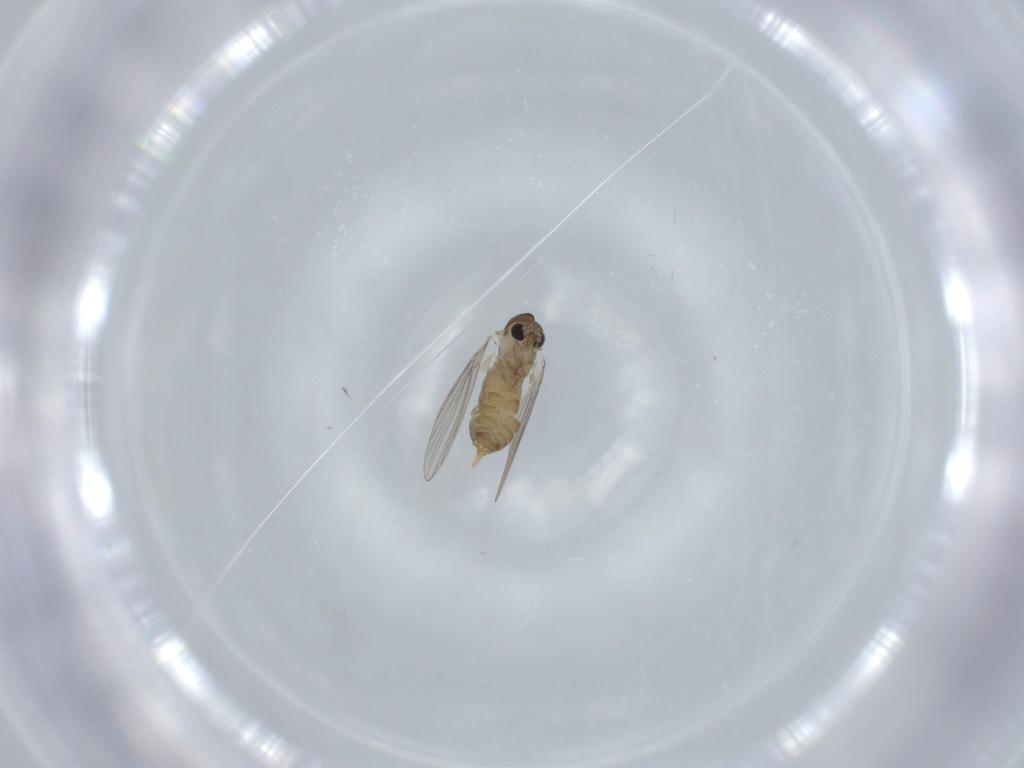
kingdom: Animalia
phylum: Arthropoda
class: Insecta
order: Diptera
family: Psychodidae
